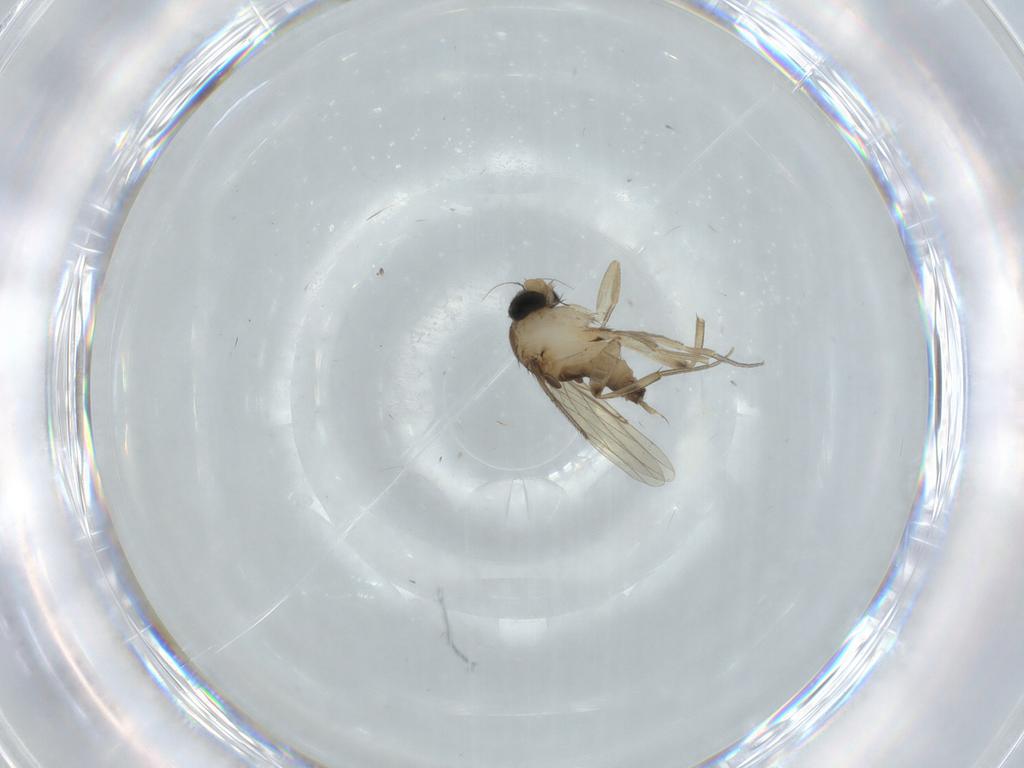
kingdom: Animalia
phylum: Arthropoda
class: Insecta
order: Diptera
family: Phoridae
